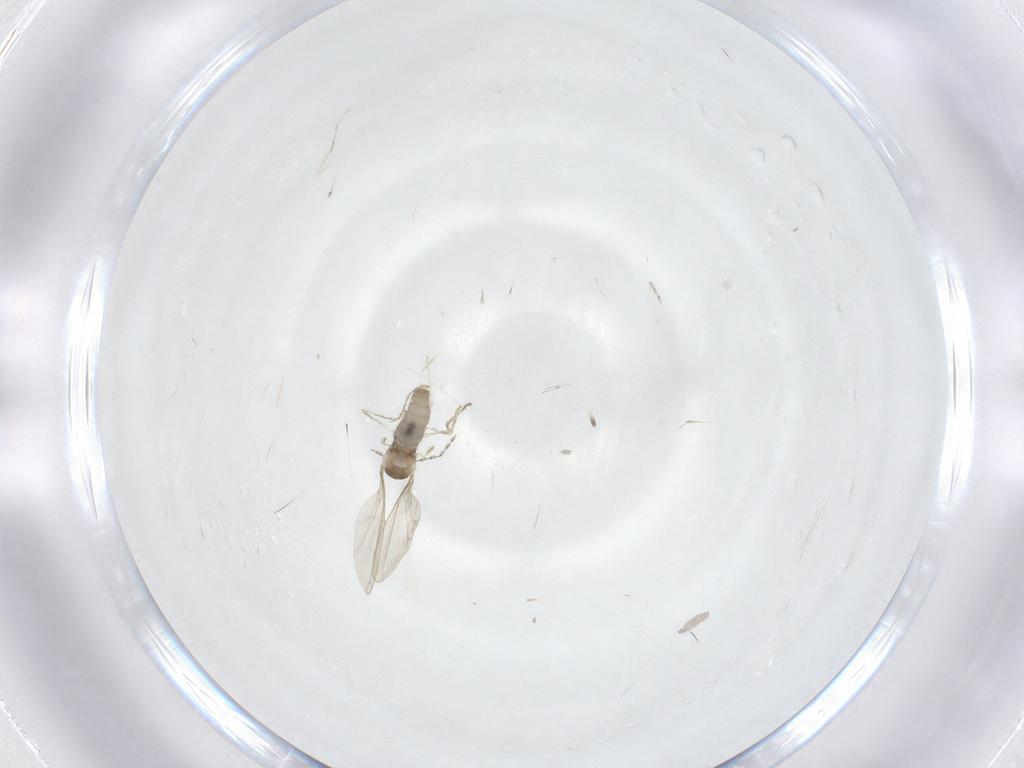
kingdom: Animalia
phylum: Arthropoda
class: Insecta
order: Diptera
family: Cecidomyiidae
